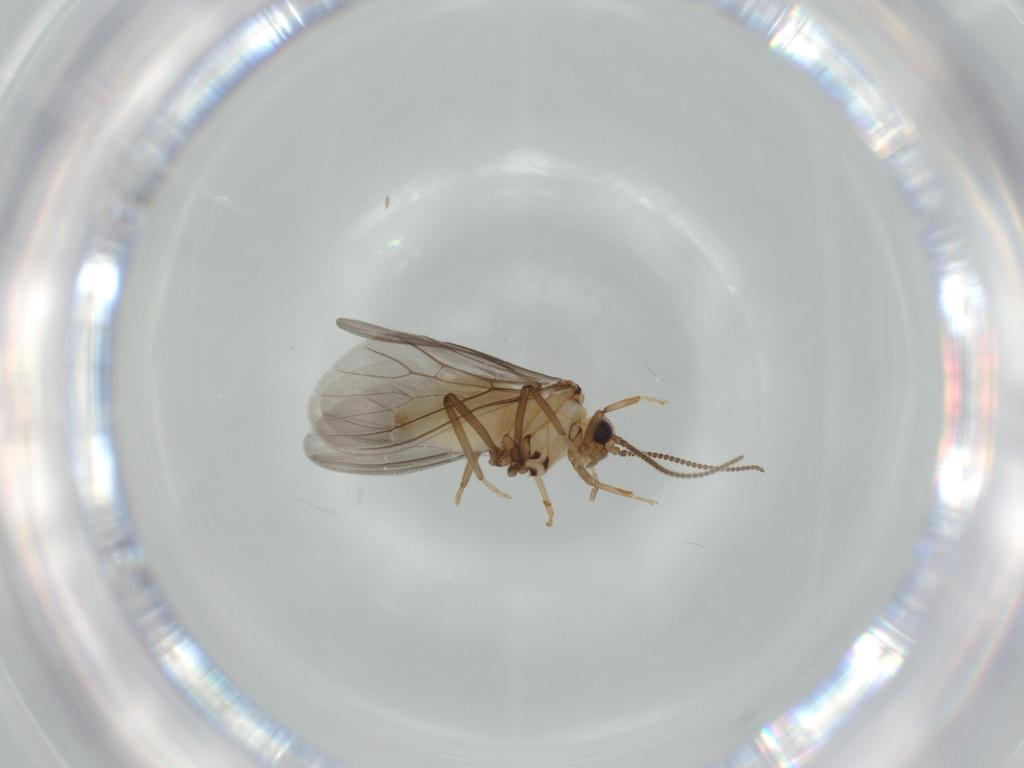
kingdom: Animalia
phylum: Arthropoda
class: Insecta
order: Neuroptera
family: Coniopterygidae
